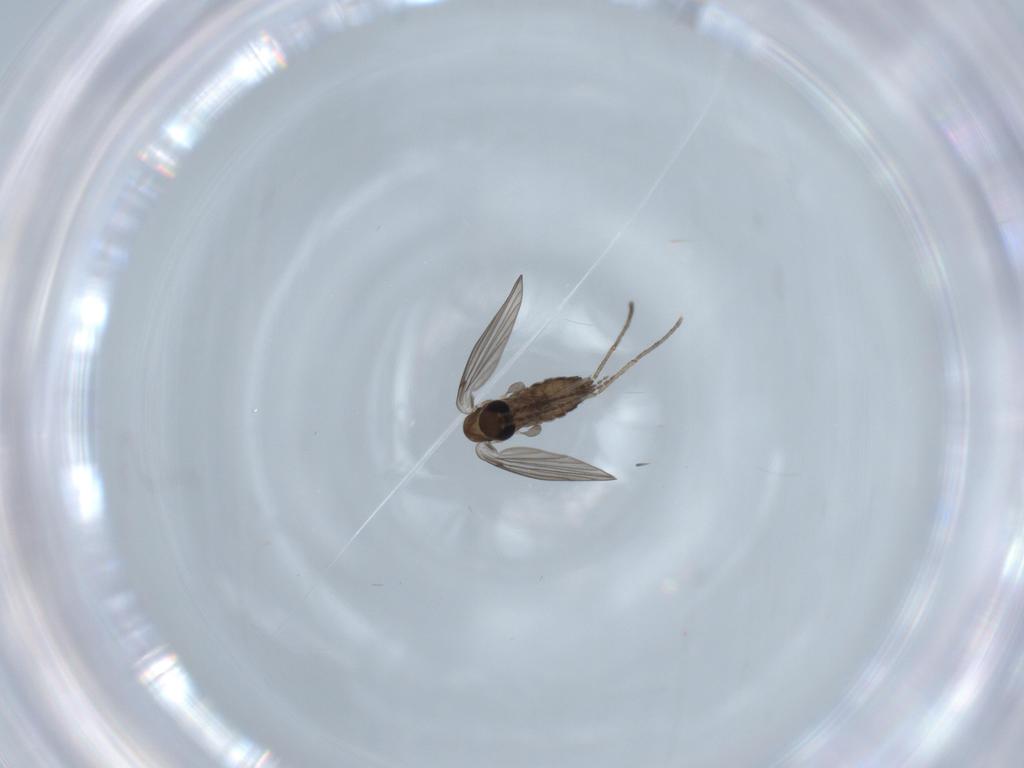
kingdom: Animalia
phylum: Arthropoda
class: Insecta
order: Diptera
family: Psychodidae
